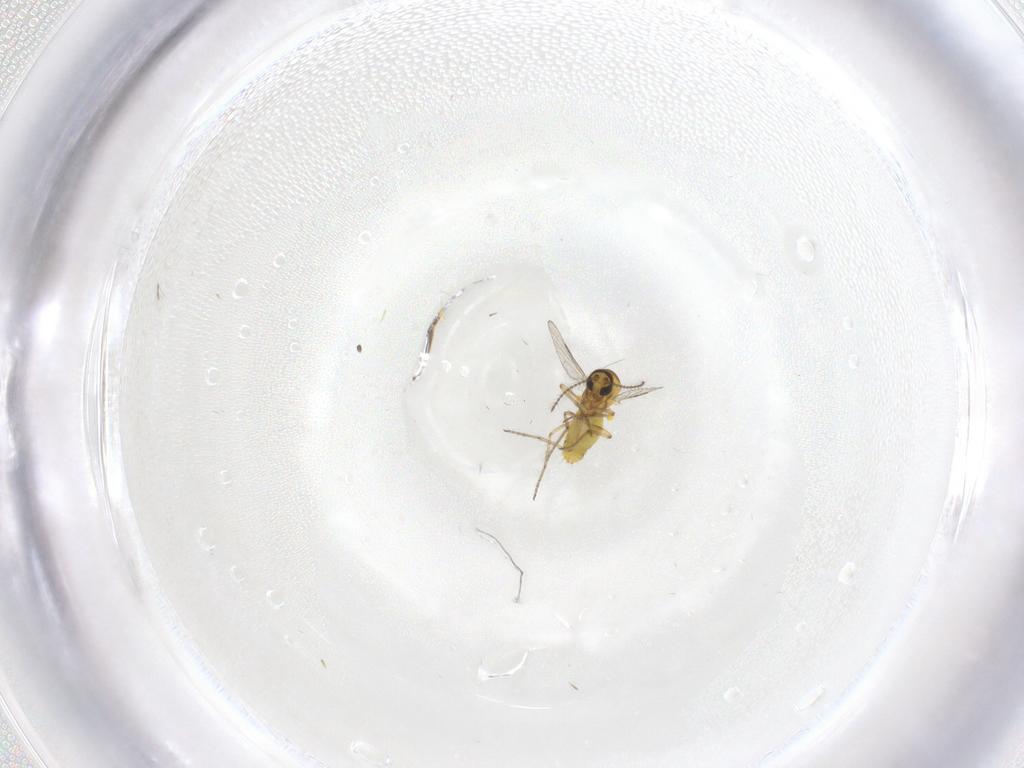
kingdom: Animalia
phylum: Arthropoda
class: Insecta
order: Diptera
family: Ceratopogonidae
